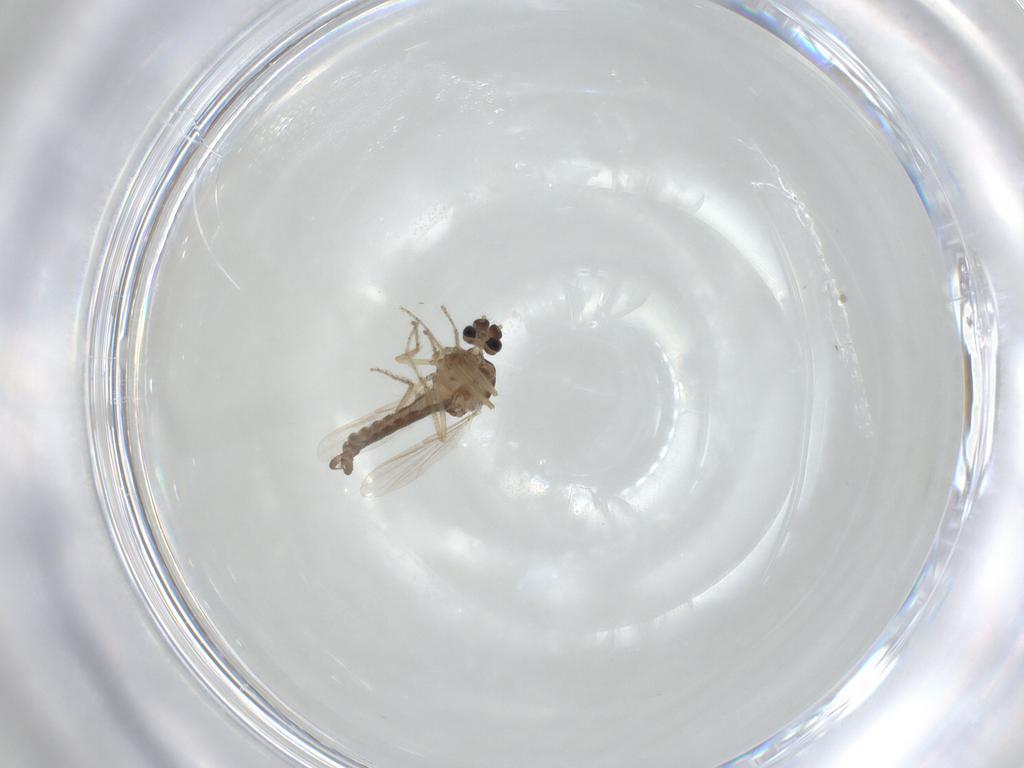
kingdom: Animalia
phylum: Arthropoda
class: Insecta
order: Diptera
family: Ceratopogonidae
